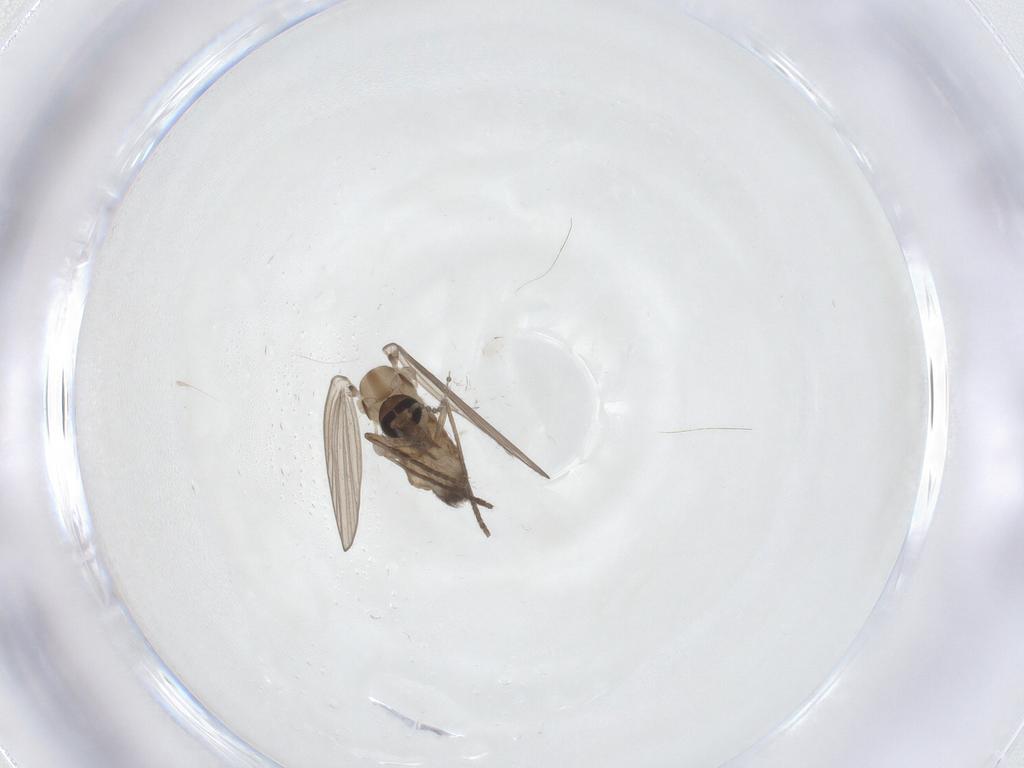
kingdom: Animalia
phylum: Arthropoda
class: Insecta
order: Diptera
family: Psychodidae
